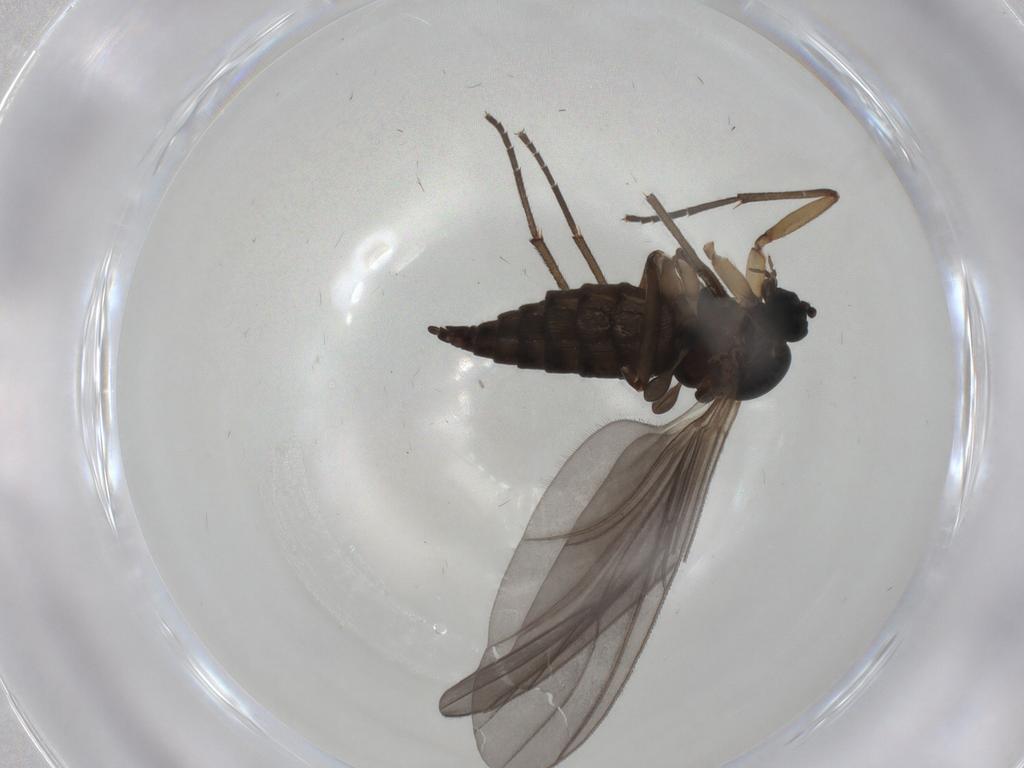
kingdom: Animalia
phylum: Arthropoda
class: Insecta
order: Diptera
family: Sciaridae
